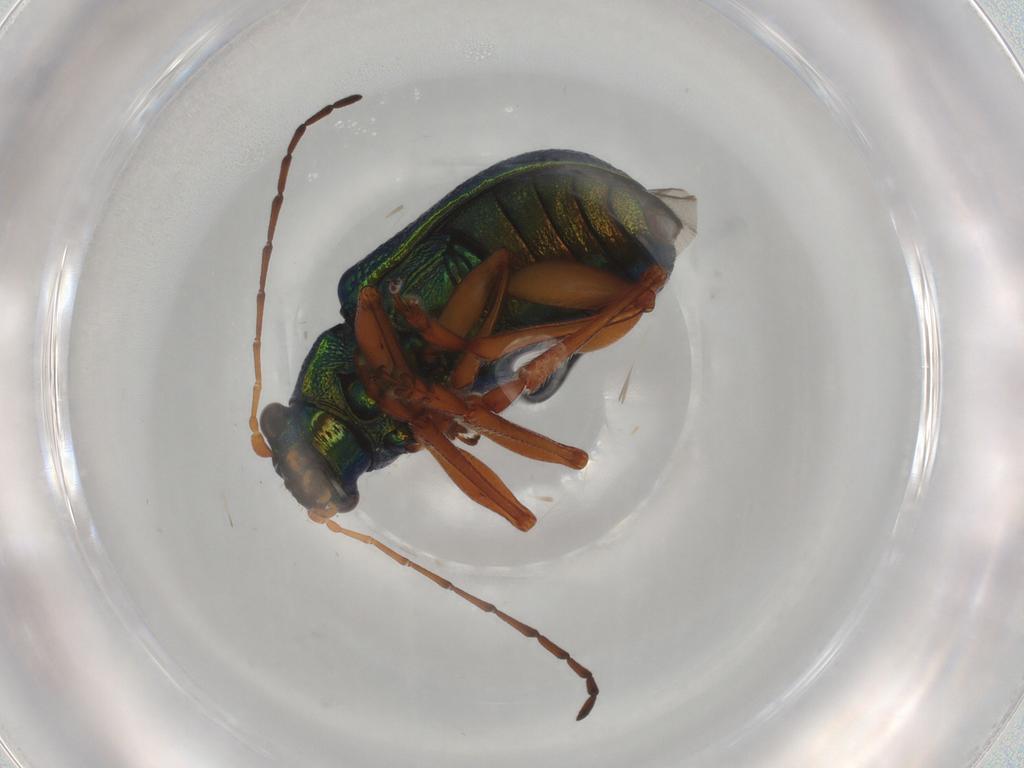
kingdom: Animalia
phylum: Arthropoda
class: Insecta
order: Coleoptera
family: Chrysomelidae
